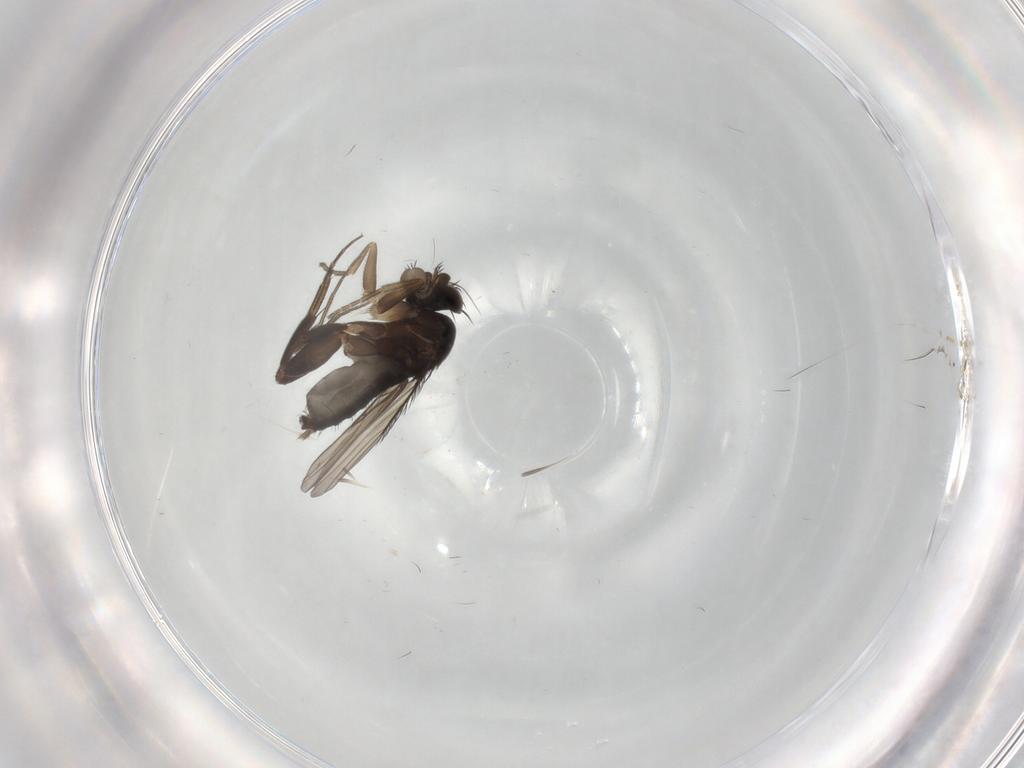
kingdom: Animalia
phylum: Arthropoda
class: Insecta
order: Diptera
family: Phoridae
